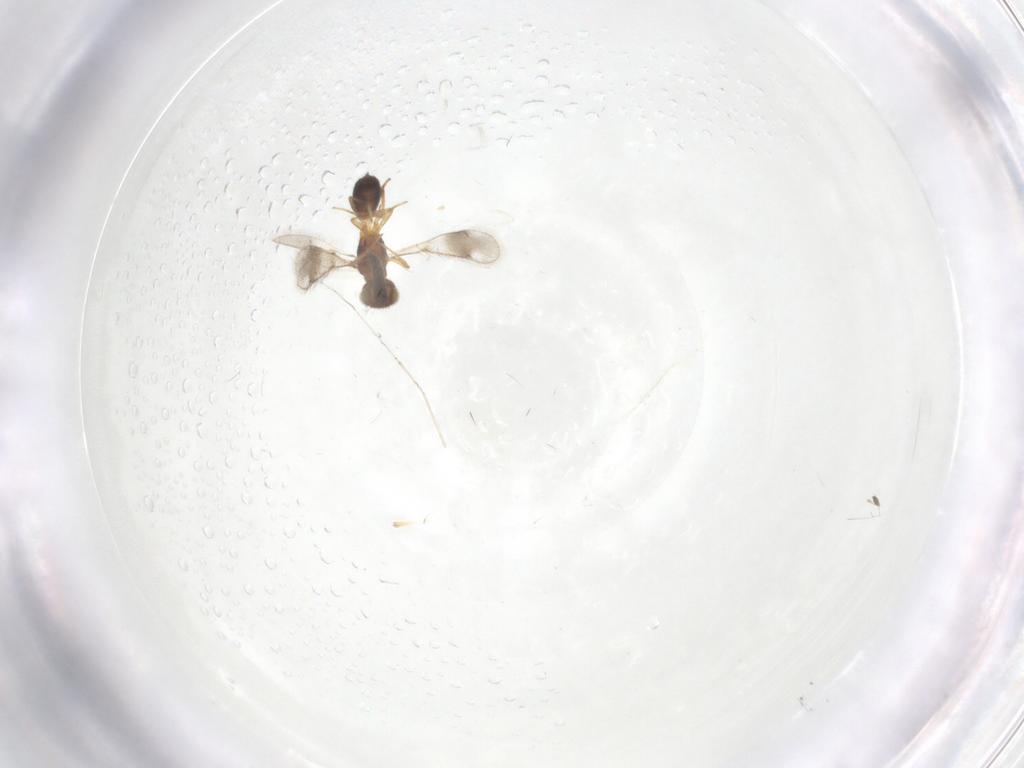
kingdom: Animalia
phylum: Arthropoda
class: Insecta
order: Hymenoptera
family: Pteromalidae
